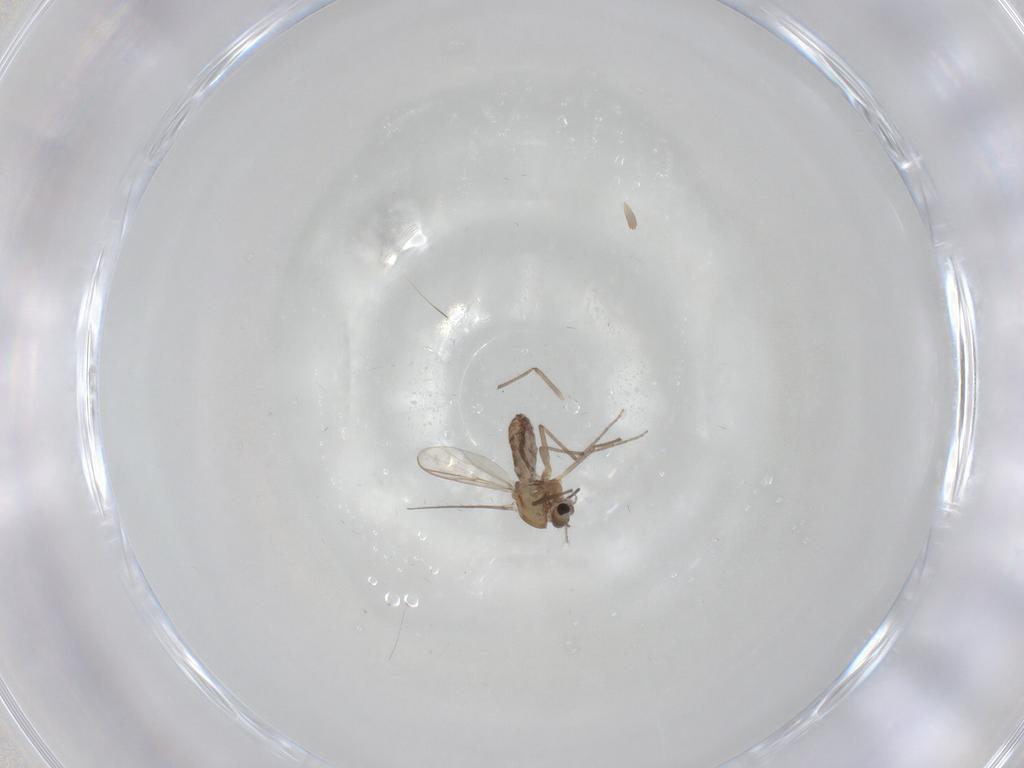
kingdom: Animalia
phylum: Arthropoda
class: Insecta
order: Diptera
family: Chironomidae
